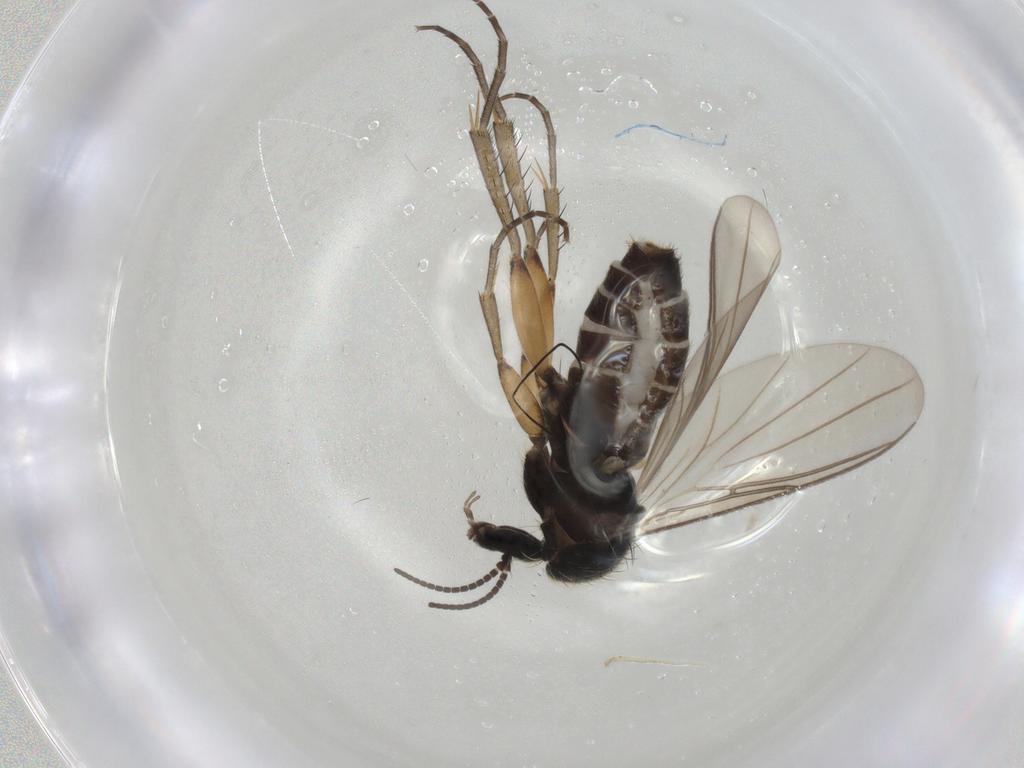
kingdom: Animalia
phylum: Arthropoda
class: Insecta
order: Diptera
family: Mycetophilidae
